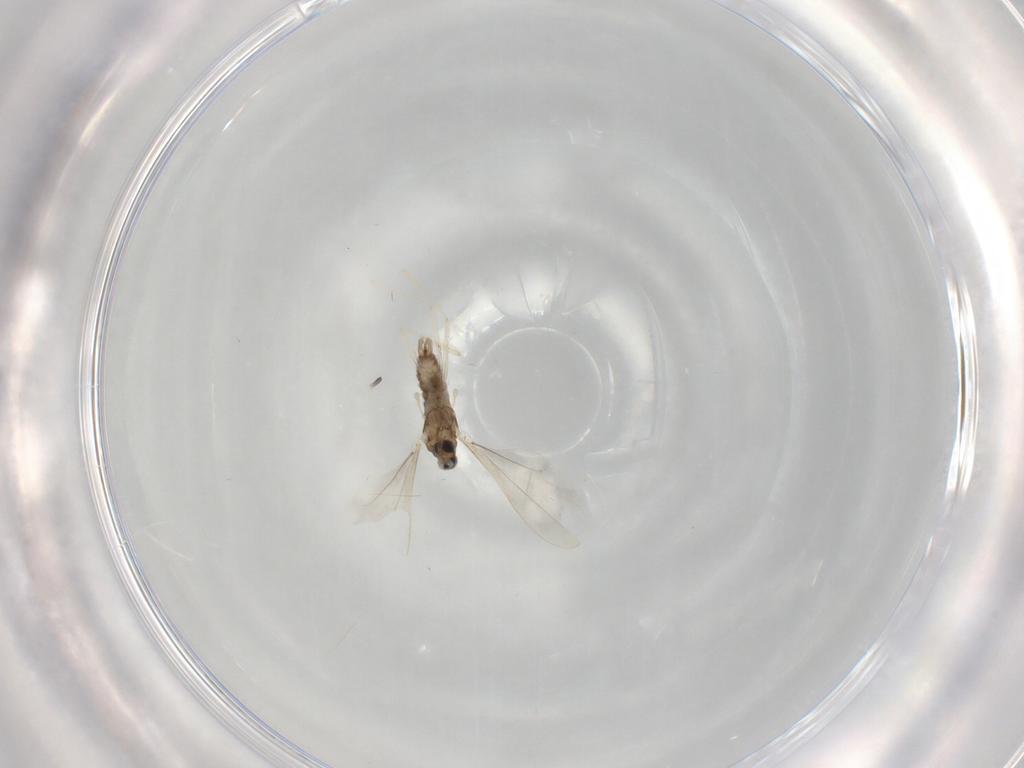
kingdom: Animalia
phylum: Arthropoda
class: Insecta
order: Diptera
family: Cecidomyiidae
